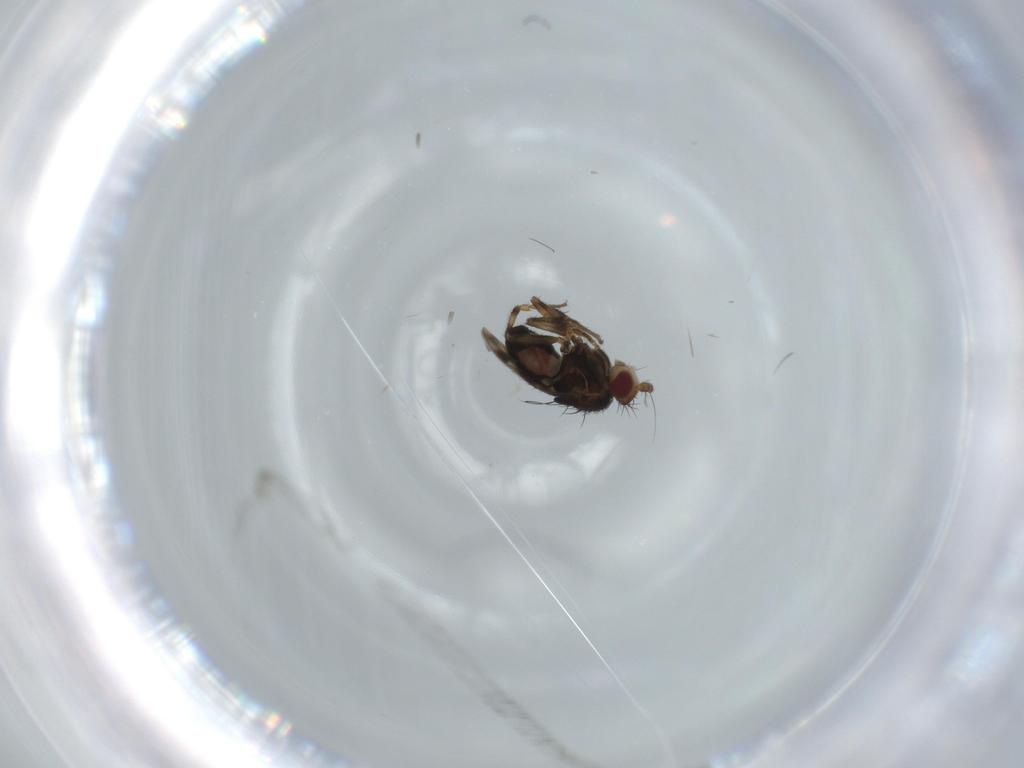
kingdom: Animalia
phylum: Arthropoda
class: Insecta
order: Diptera
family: Sphaeroceridae
